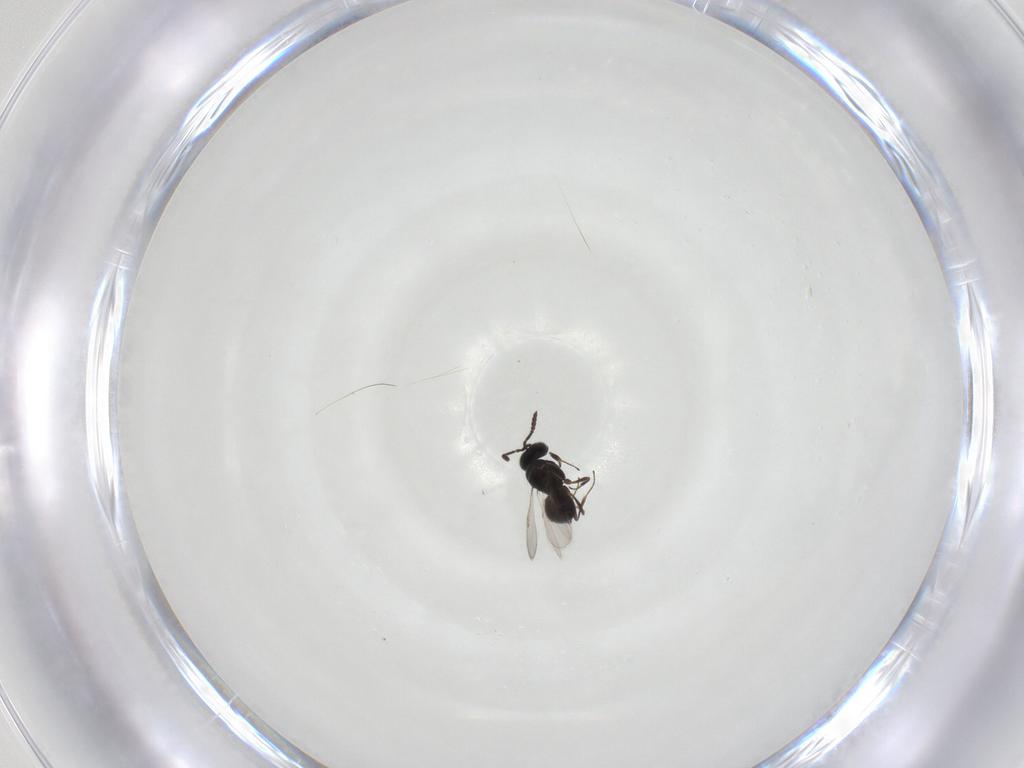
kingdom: Animalia
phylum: Arthropoda
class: Insecta
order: Hymenoptera
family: Scelionidae
